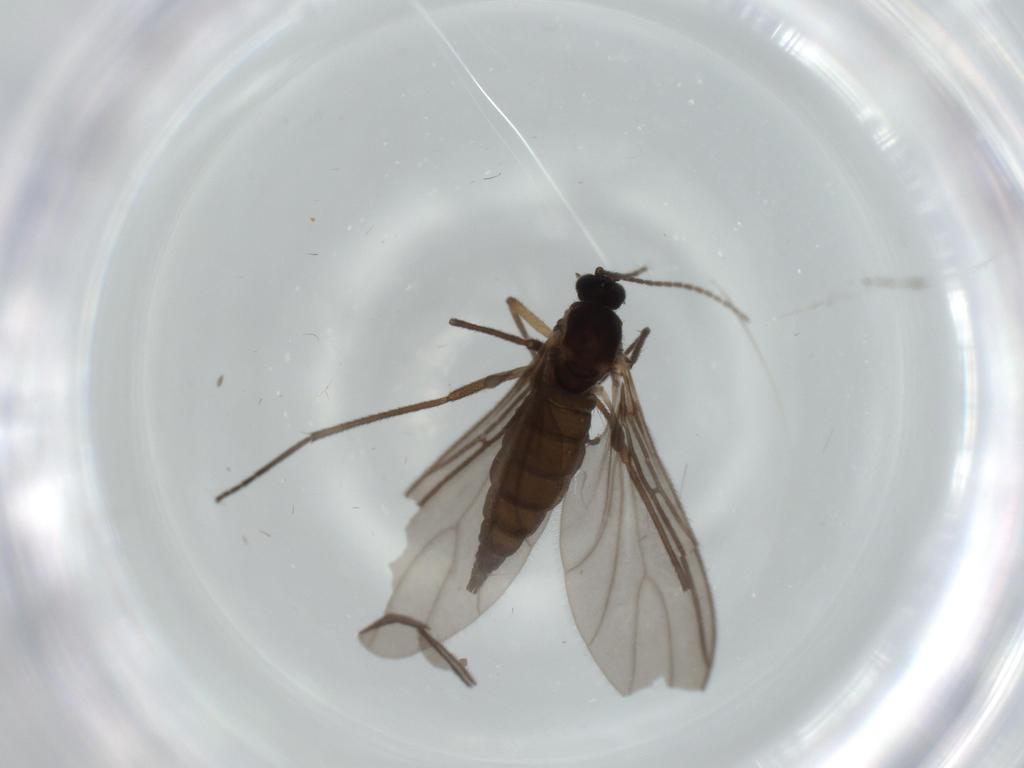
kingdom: Animalia
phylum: Arthropoda
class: Insecta
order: Diptera
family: Sciaridae
